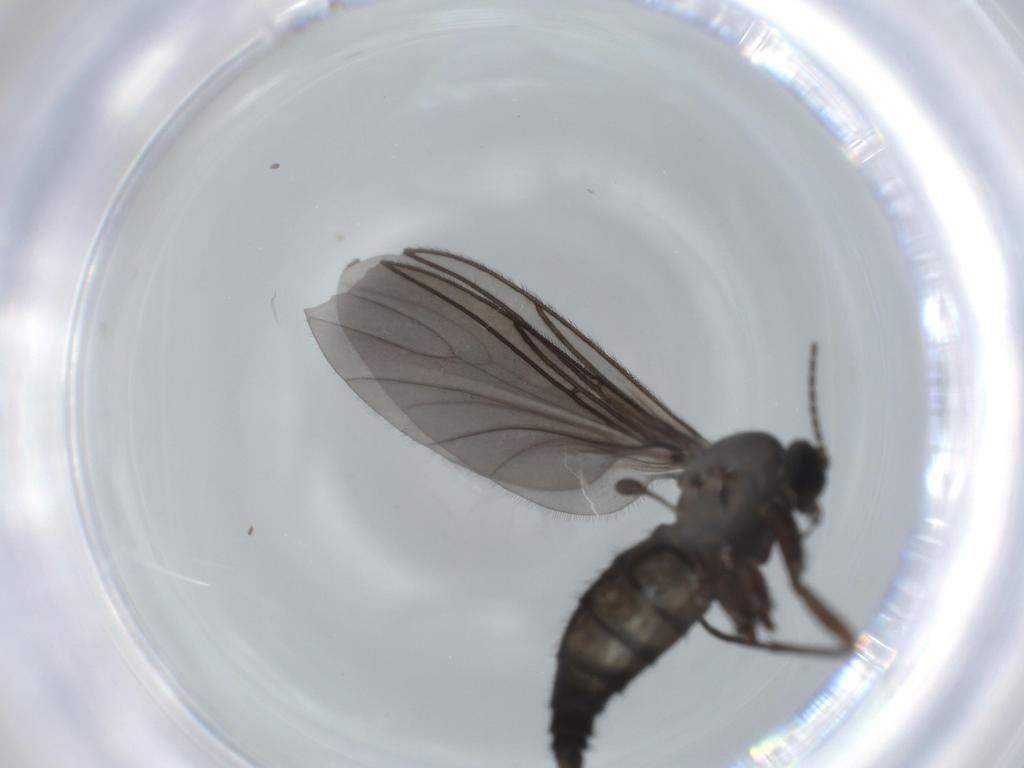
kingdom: Animalia
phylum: Arthropoda
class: Insecta
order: Diptera
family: Sciaridae
